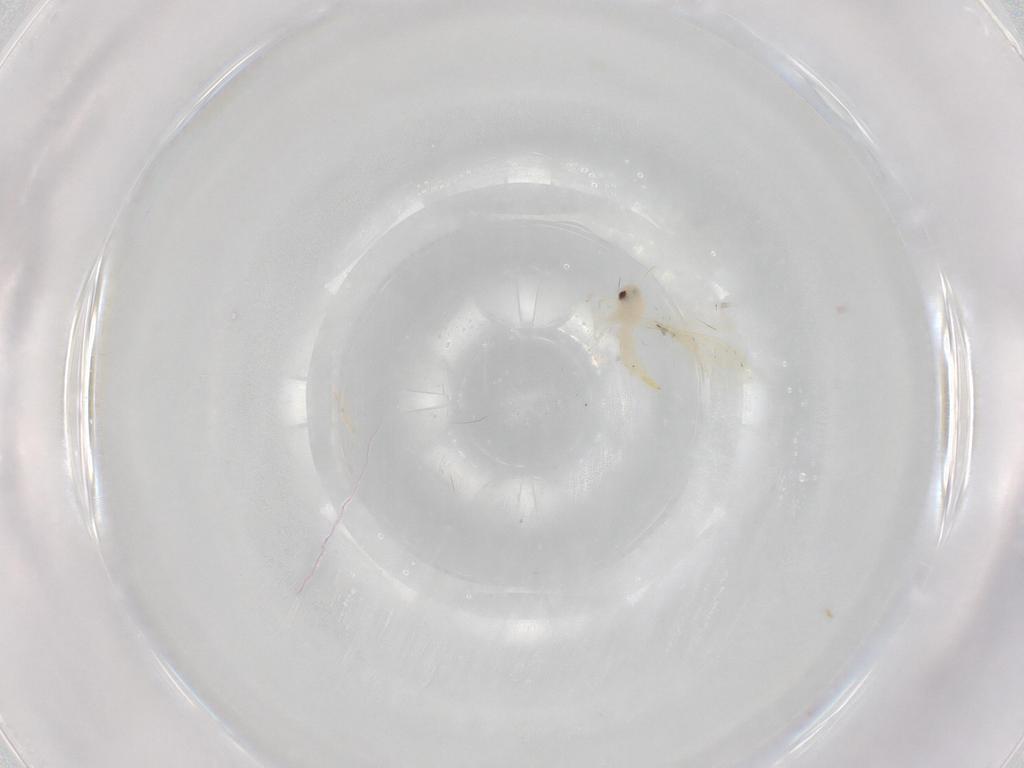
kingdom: Animalia
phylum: Arthropoda
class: Insecta
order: Hemiptera
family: Aleyrodidae
